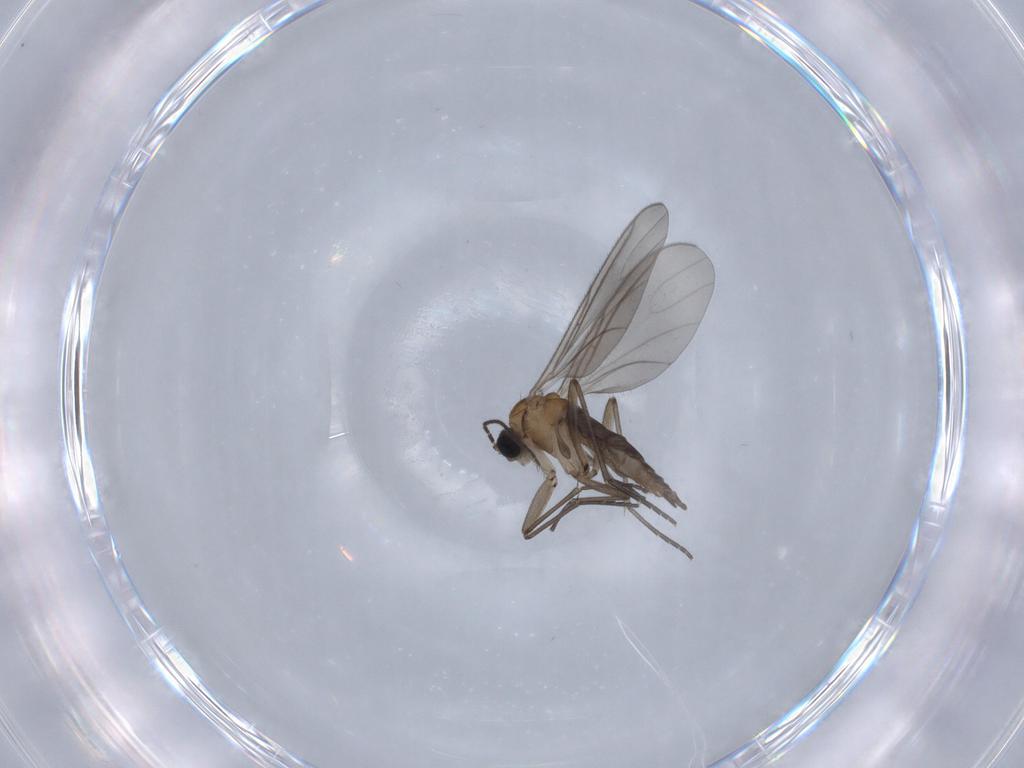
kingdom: Animalia
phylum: Arthropoda
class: Insecta
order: Diptera
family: Sciaridae
